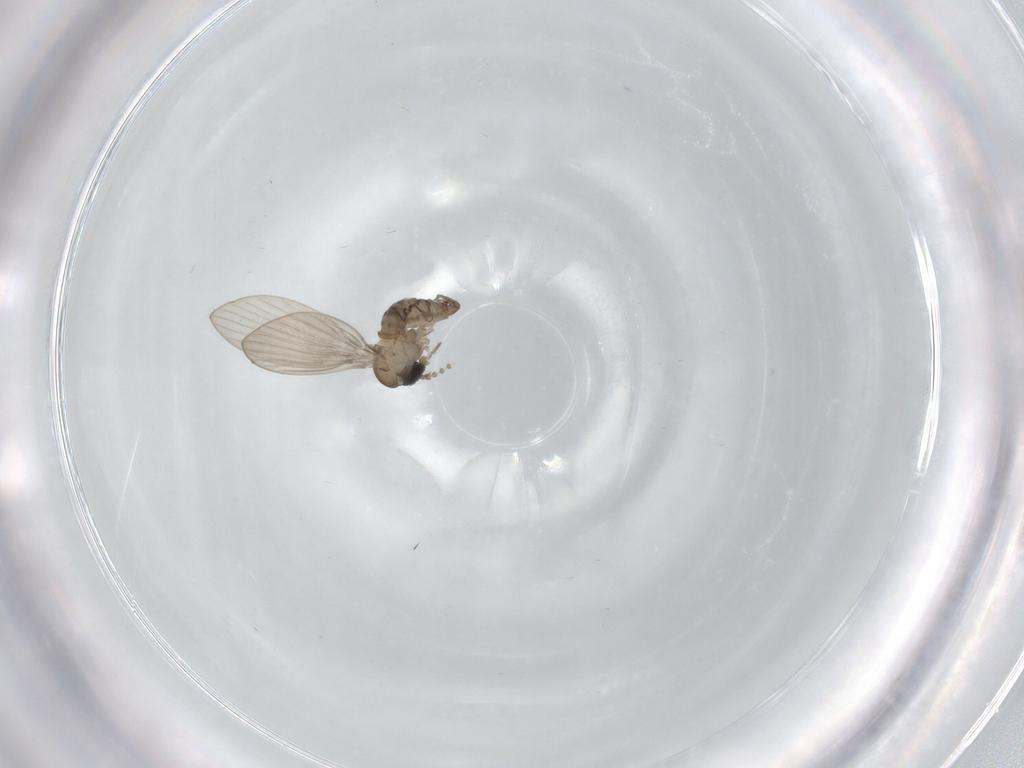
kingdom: Animalia
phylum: Arthropoda
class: Insecta
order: Diptera
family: Psychodidae
